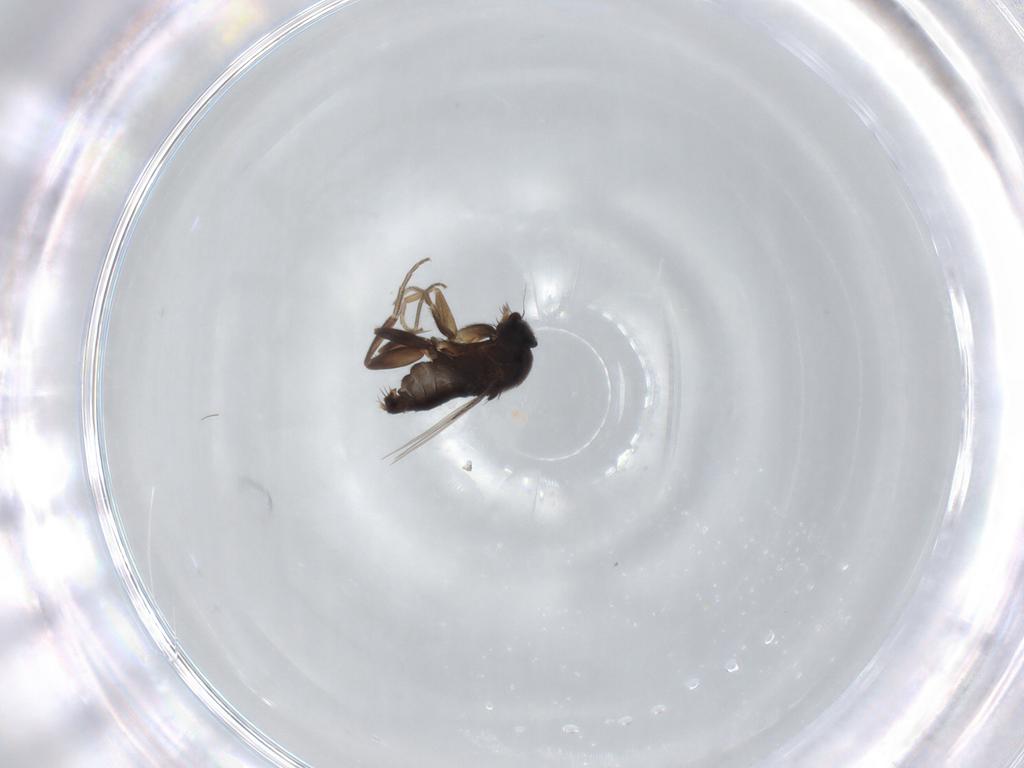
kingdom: Animalia
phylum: Arthropoda
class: Insecta
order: Diptera
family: Phoridae
